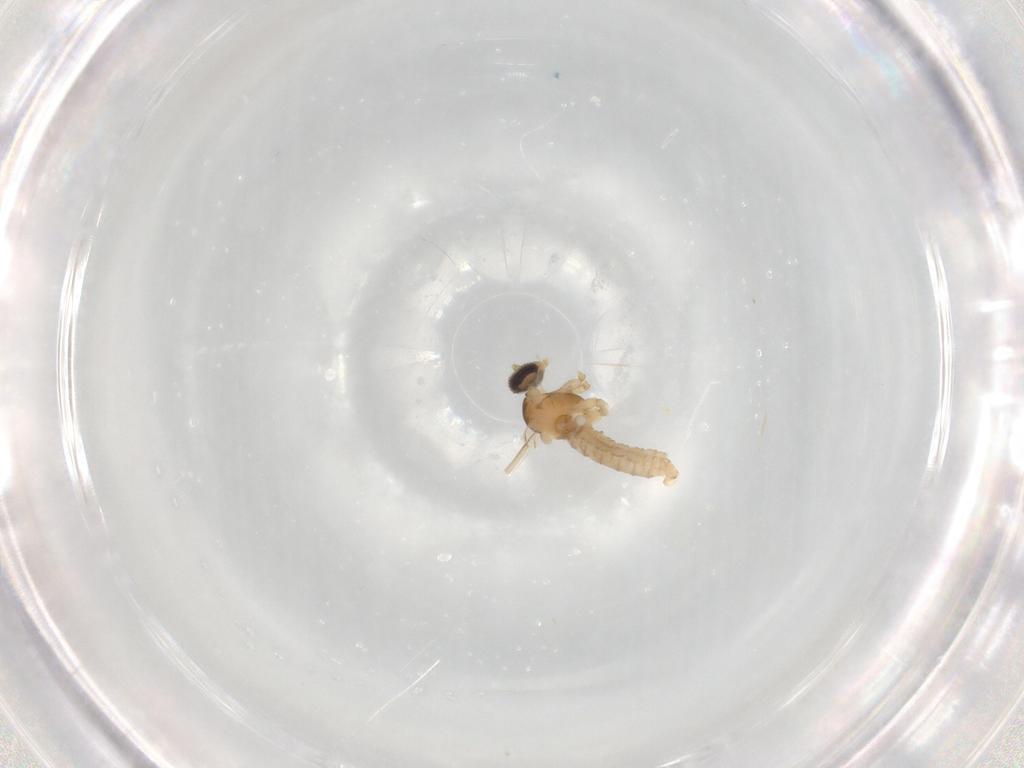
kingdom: Animalia
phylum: Arthropoda
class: Insecta
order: Diptera
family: Cecidomyiidae
